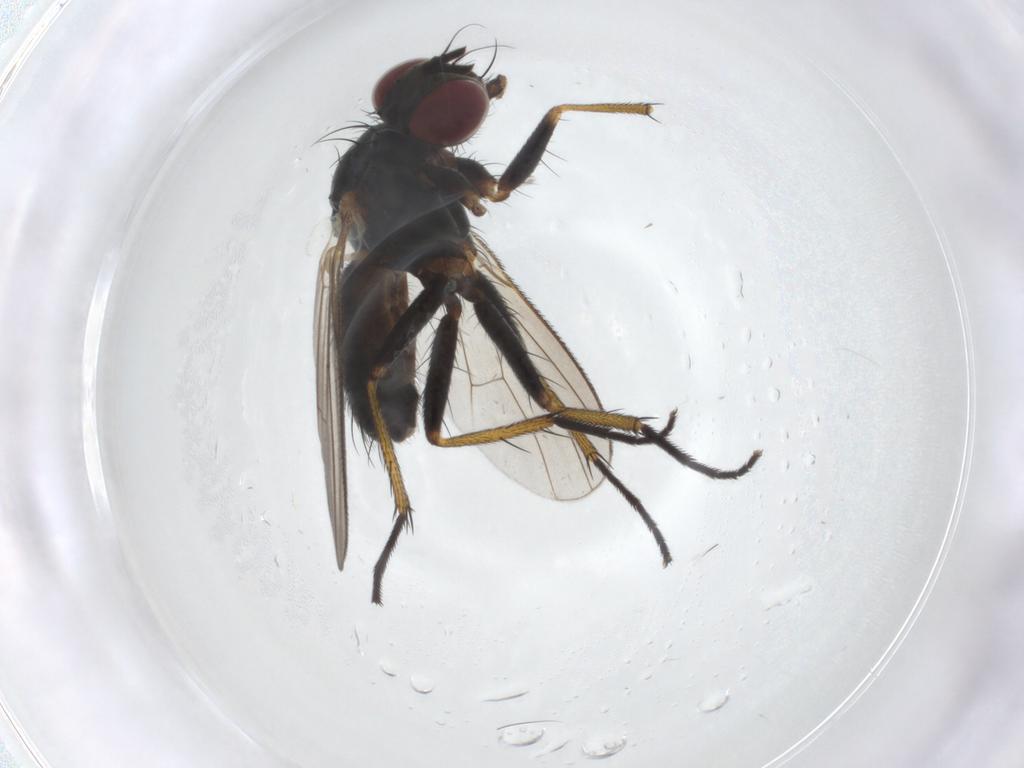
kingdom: Animalia
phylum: Arthropoda
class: Insecta
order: Diptera
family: Muscidae
